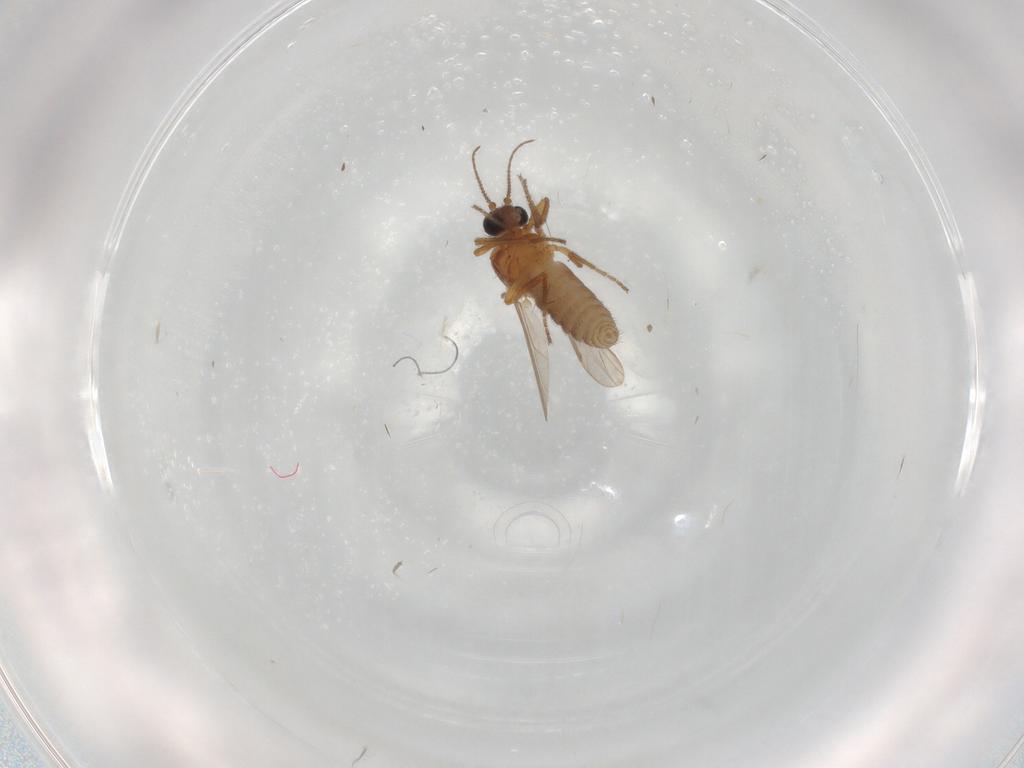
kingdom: Animalia
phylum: Arthropoda
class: Insecta
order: Diptera
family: Ceratopogonidae
